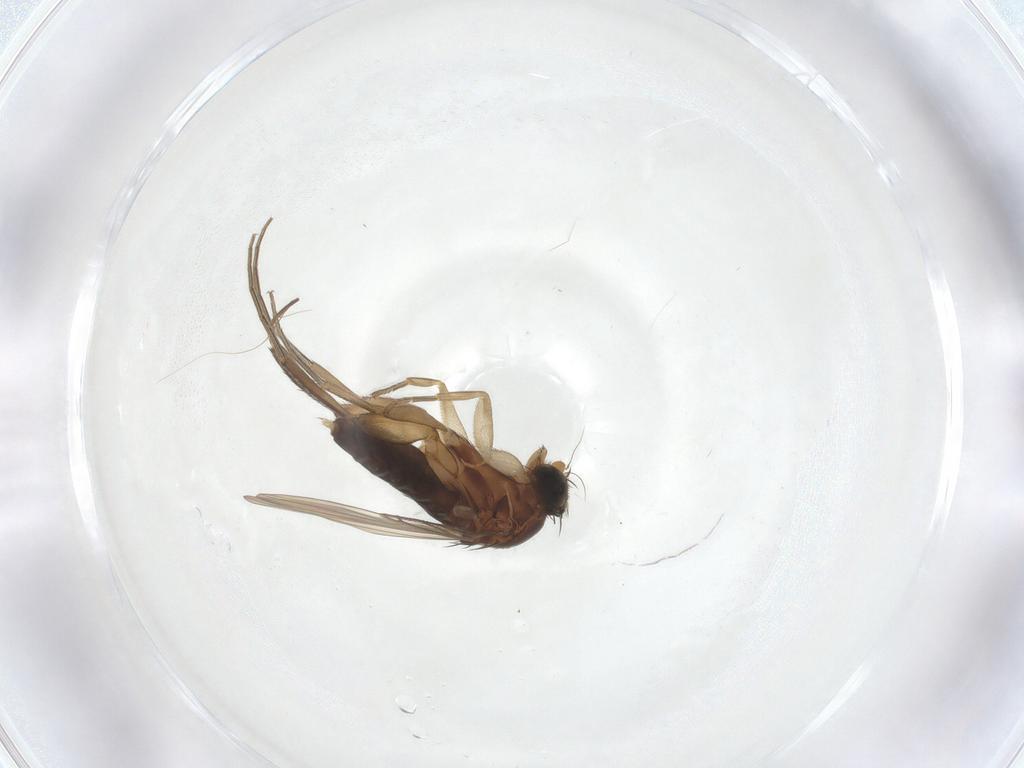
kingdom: Animalia
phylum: Arthropoda
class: Insecta
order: Diptera
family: Phoridae
